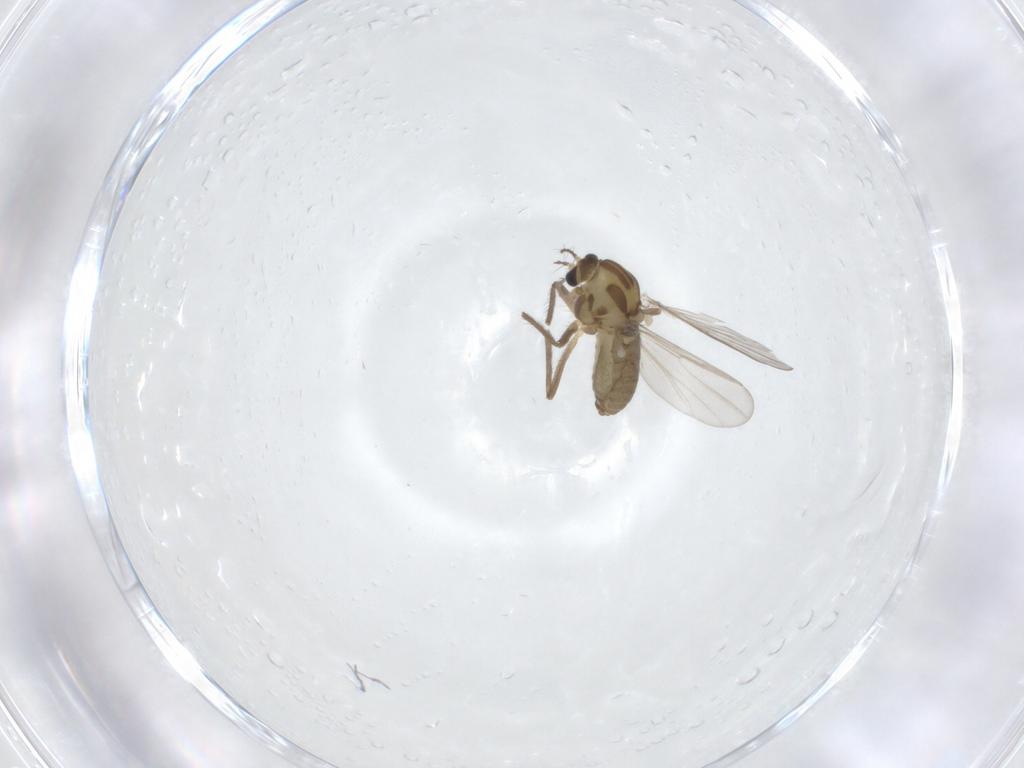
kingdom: Animalia
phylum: Arthropoda
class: Insecta
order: Diptera
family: Chironomidae
